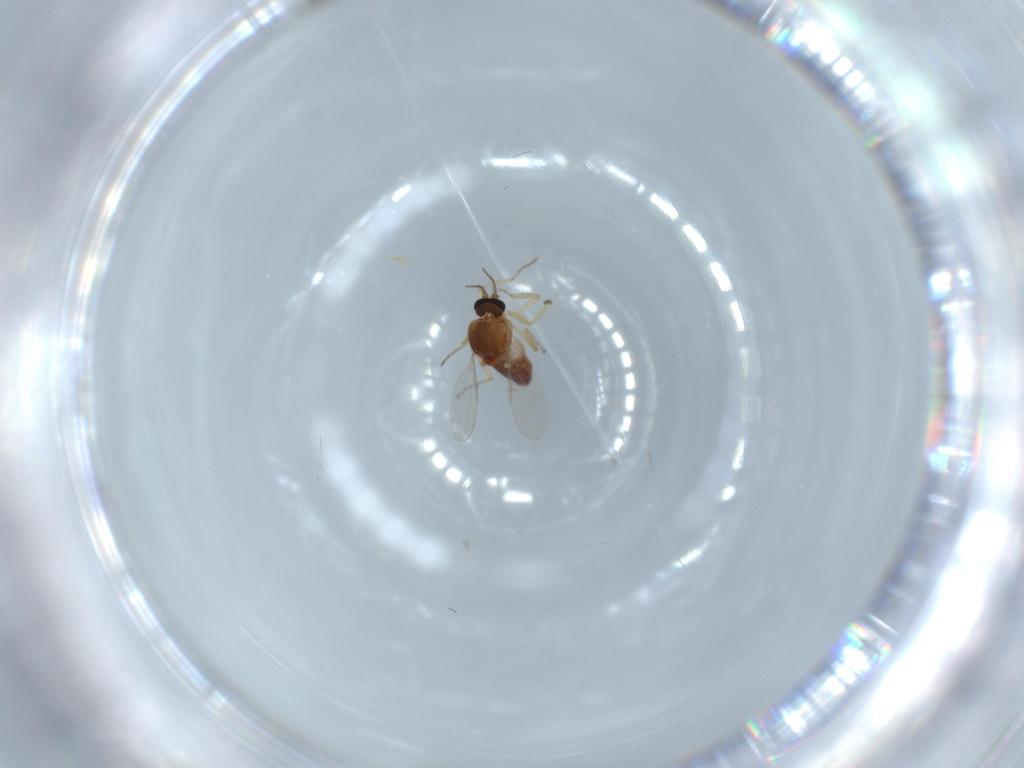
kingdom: Animalia
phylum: Arthropoda
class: Insecta
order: Diptera
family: Ceratopogonidae
